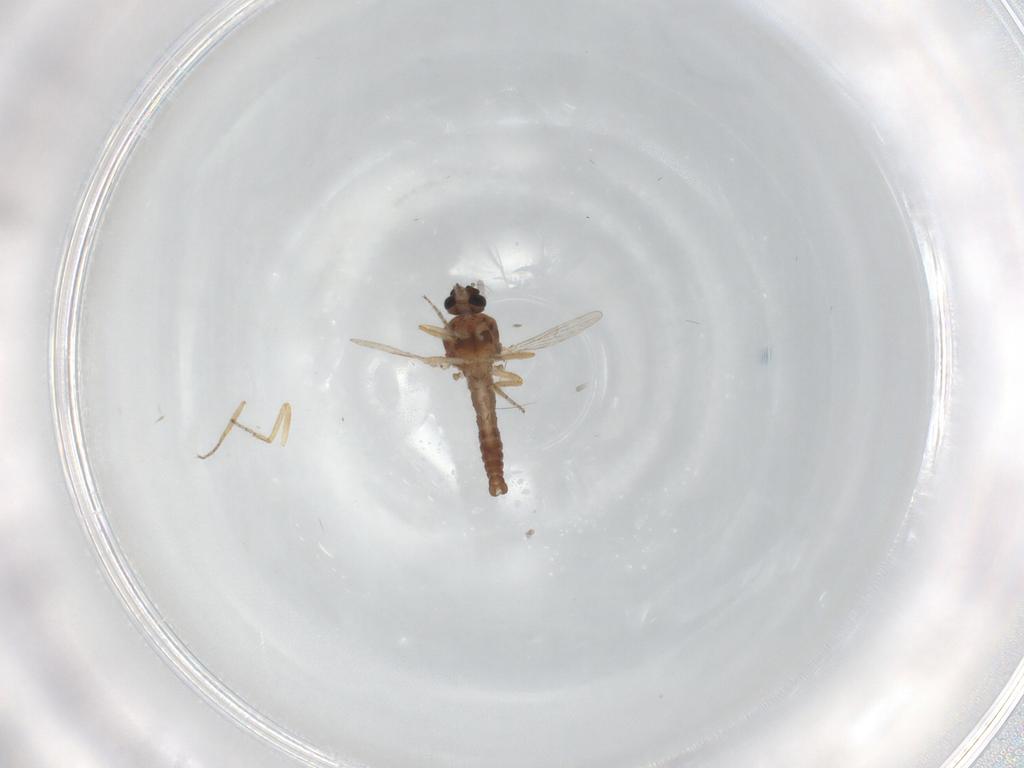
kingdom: Animalia
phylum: Arthropoda
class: Insecta
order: Diptera
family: Ceratopogonidae
